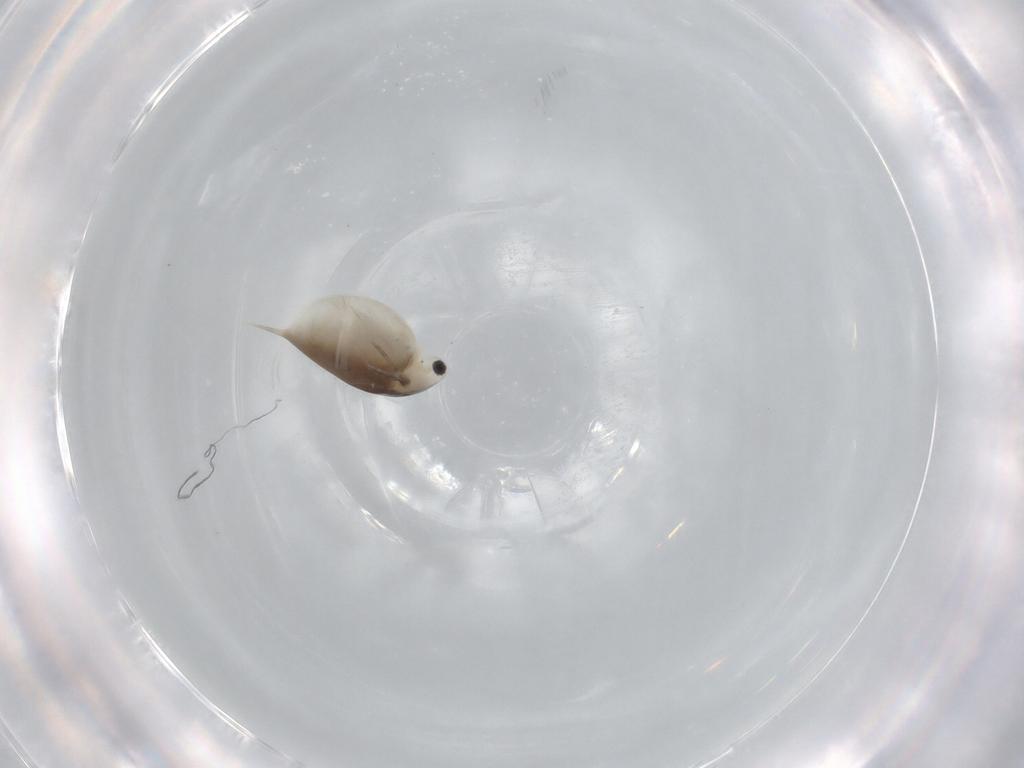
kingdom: Animalia
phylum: Arthropoda
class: Branchiopoda
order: Diplostraca
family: Daphniidae
